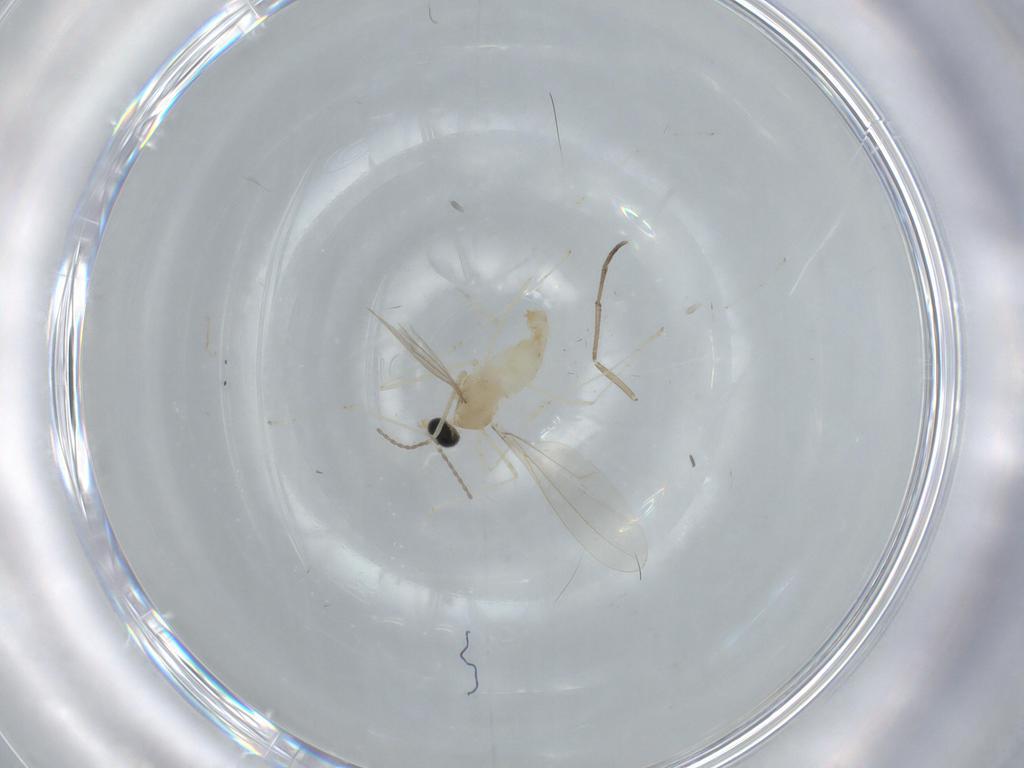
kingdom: Animalia
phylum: Arthropoda
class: Insecta
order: Diptera
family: Cecidomyiidae
